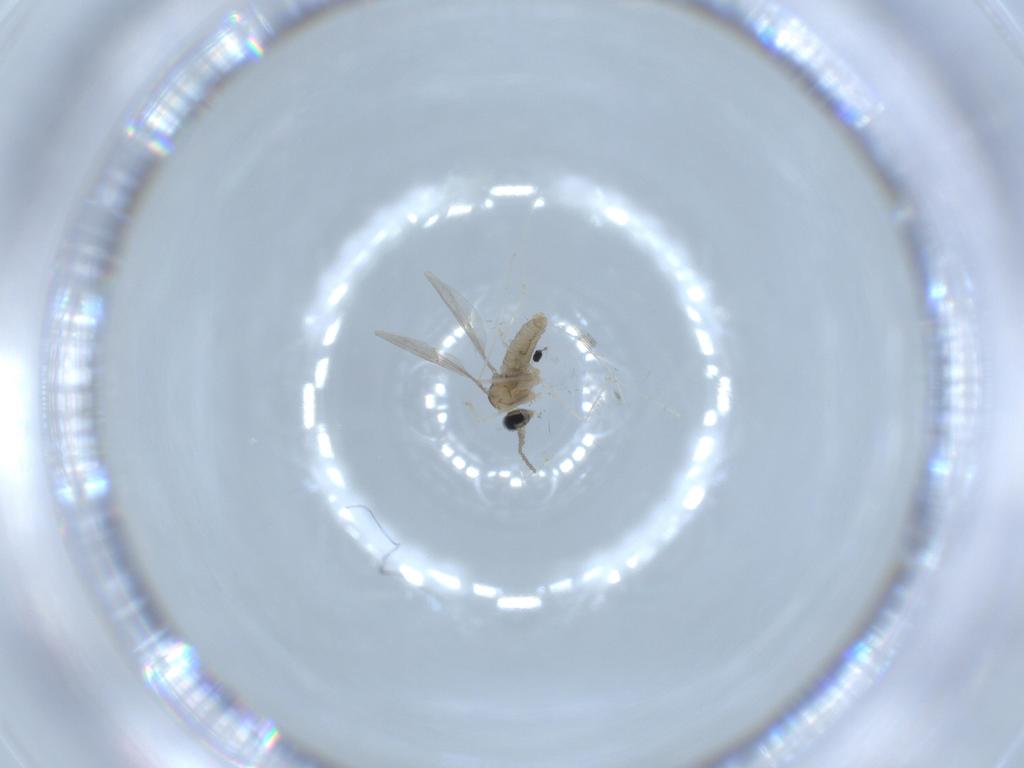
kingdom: Animalia
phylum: Arthropoda
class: Insecta
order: Diptera
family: Cecidomyiidae
